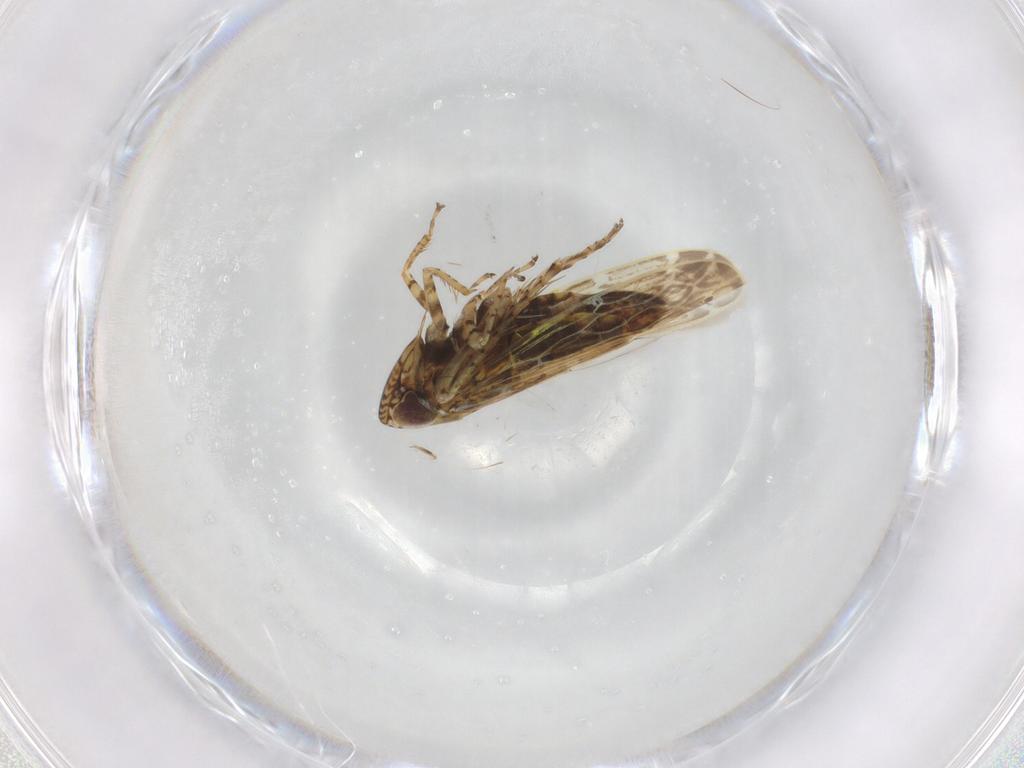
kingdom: Animalia
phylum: Arthropoda
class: Insecta
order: Hemiptera
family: Cicadellidae
